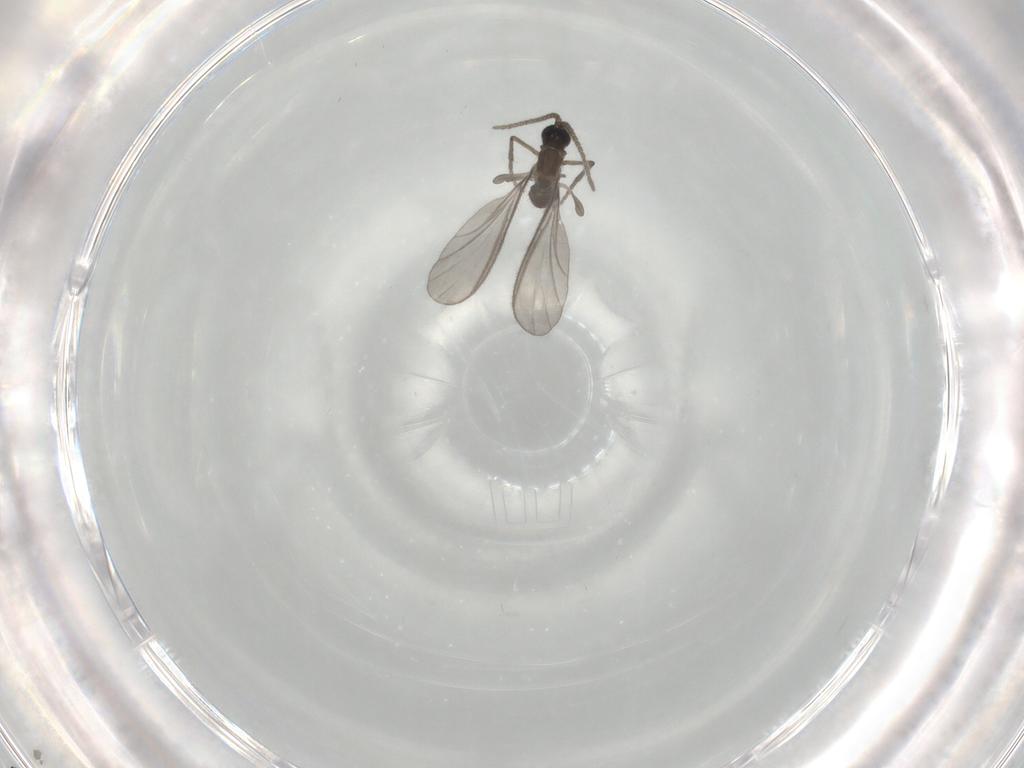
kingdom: Animalia
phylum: Arthropoda
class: Insecta
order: Diptera
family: Sciaridae
